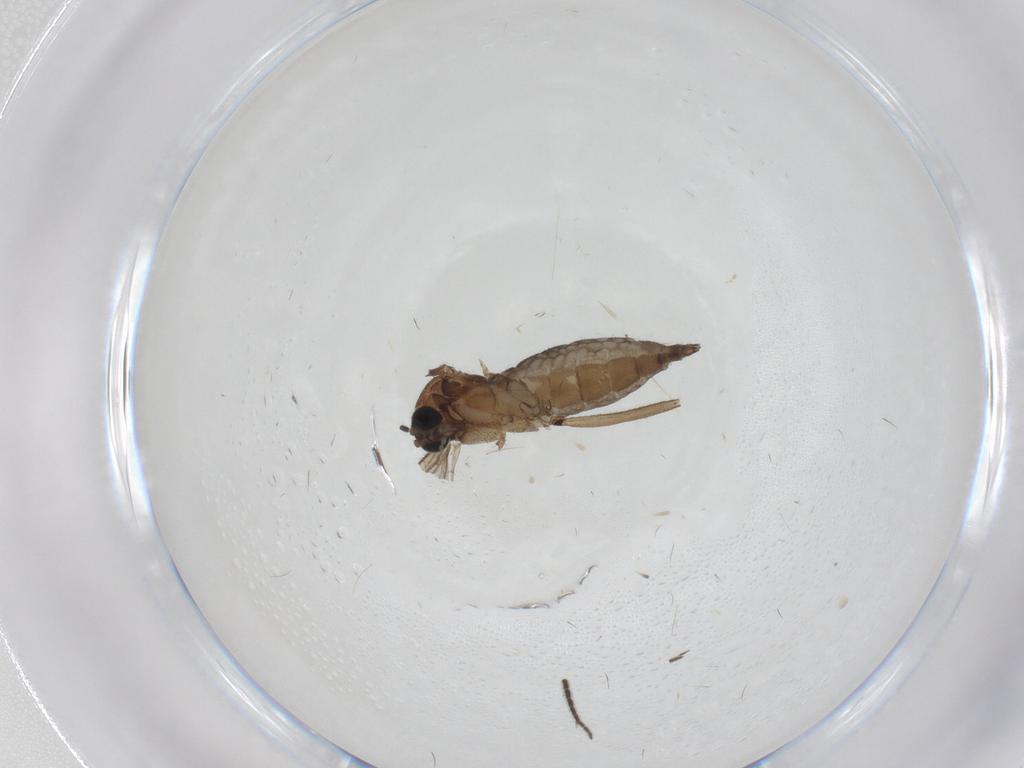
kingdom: Animalia
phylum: Arthropoda
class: Insecta
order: Diptera
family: Sciaridae
